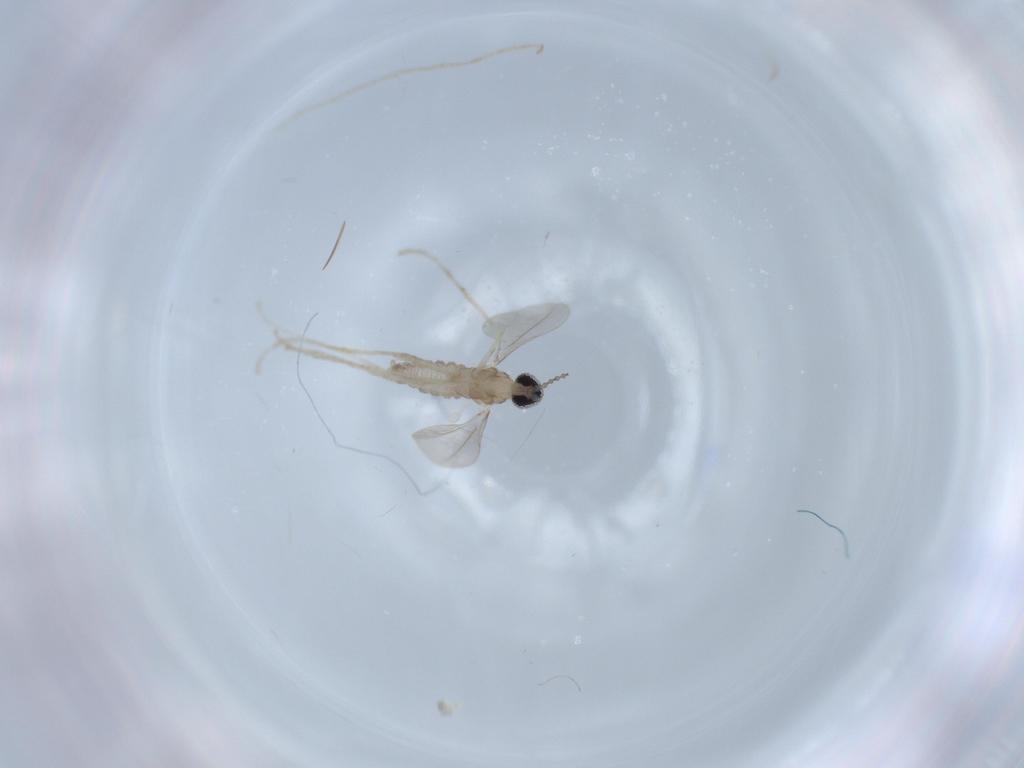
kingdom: Animalia
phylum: Arthropoda
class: Insecta
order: Diptera
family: Cecidomyiidae
